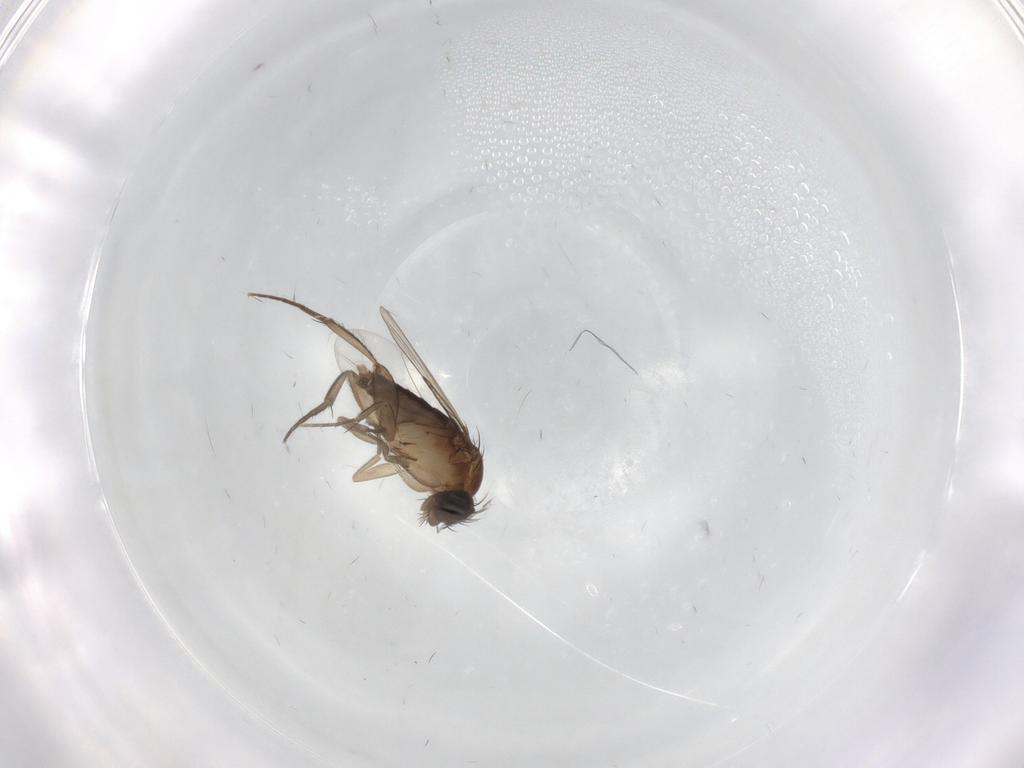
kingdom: Animalia
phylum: Arthropoda
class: Insecta
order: Diptera
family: Phoridae
